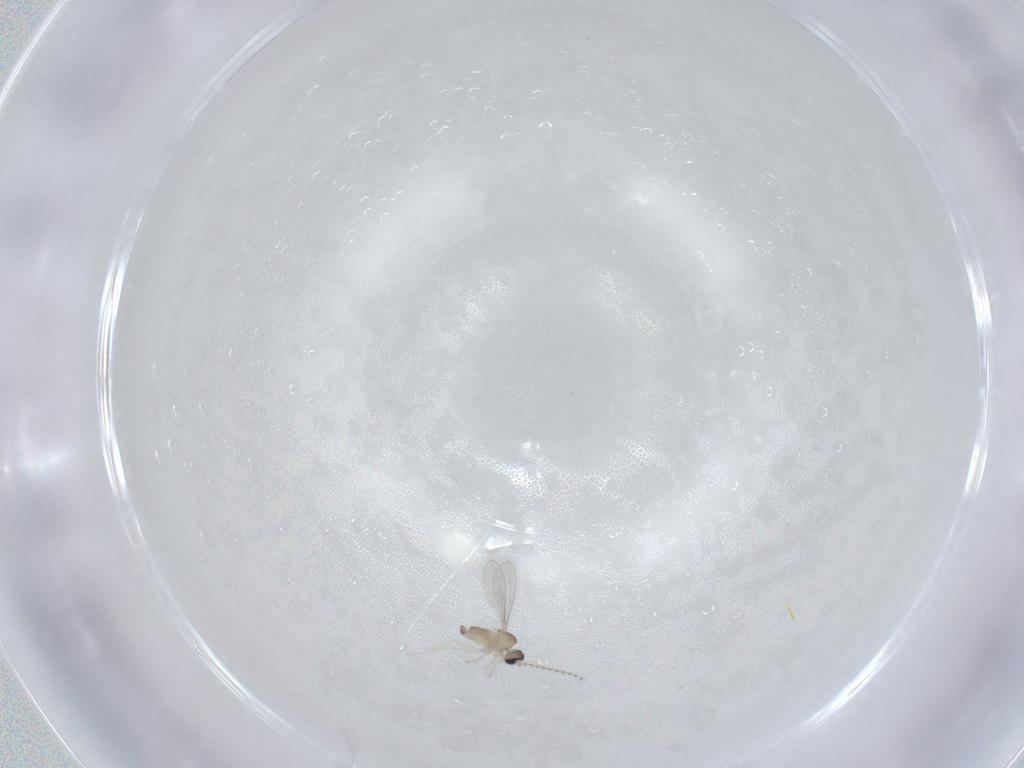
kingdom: Animalia
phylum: Arthropoda
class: Insecta
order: Diptera
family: Cecidomyiidae
